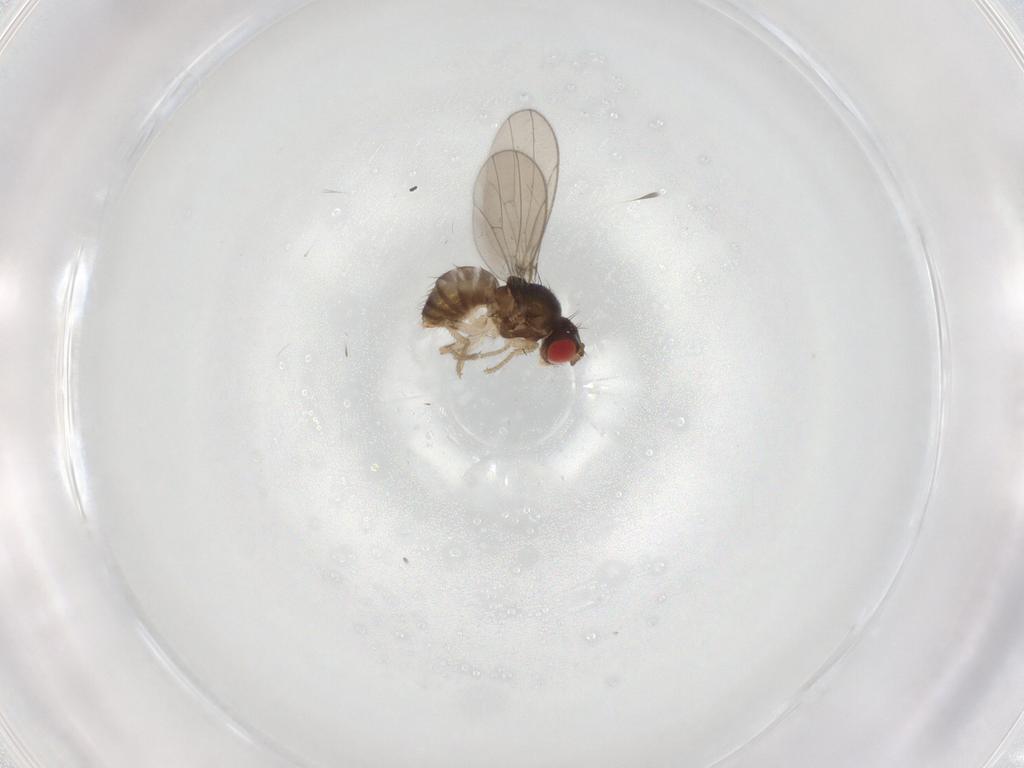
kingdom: Animalia
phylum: Arthropoda
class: Insecta
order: Diptera
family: Drosophilidae
